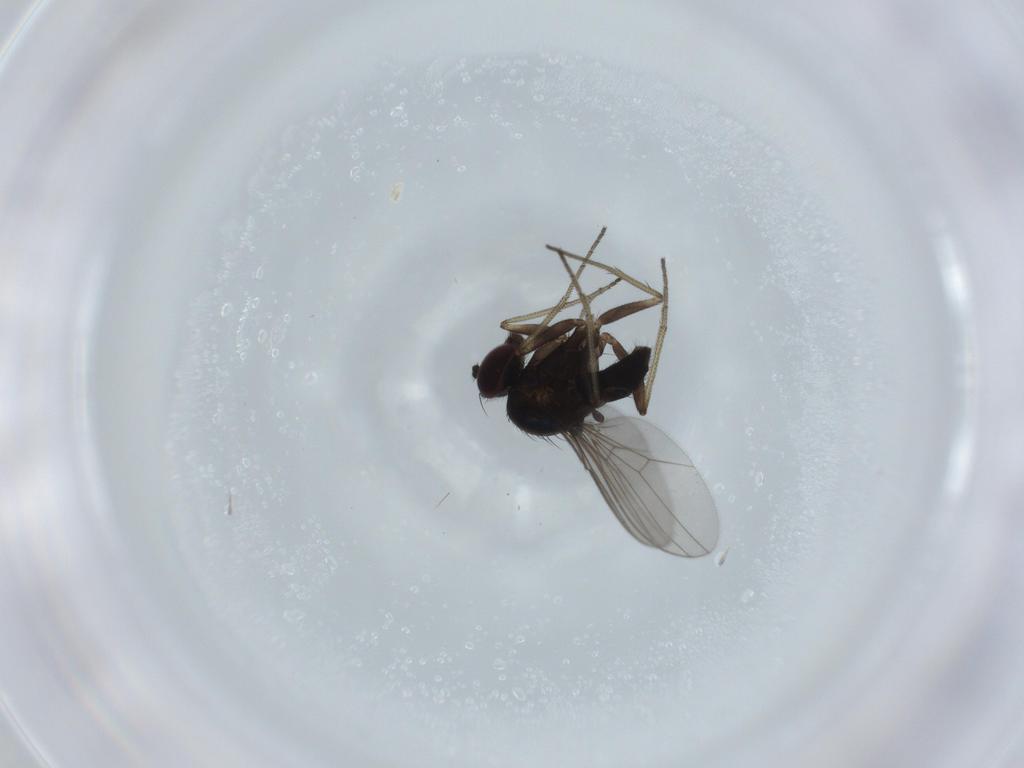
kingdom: Animalia
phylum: Arthropoda
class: Insecta
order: Diptera
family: Dolichopodidae
